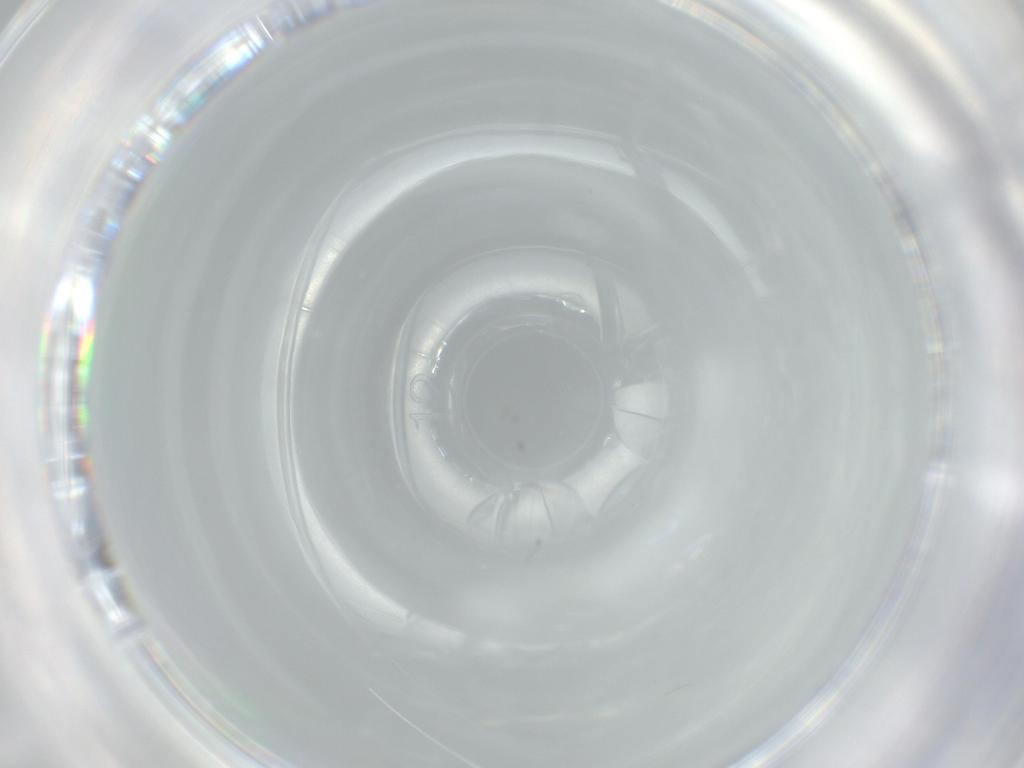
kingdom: Animalia
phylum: Arthropoda
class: Insecta
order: Diptera
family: Cecidomyiidae
